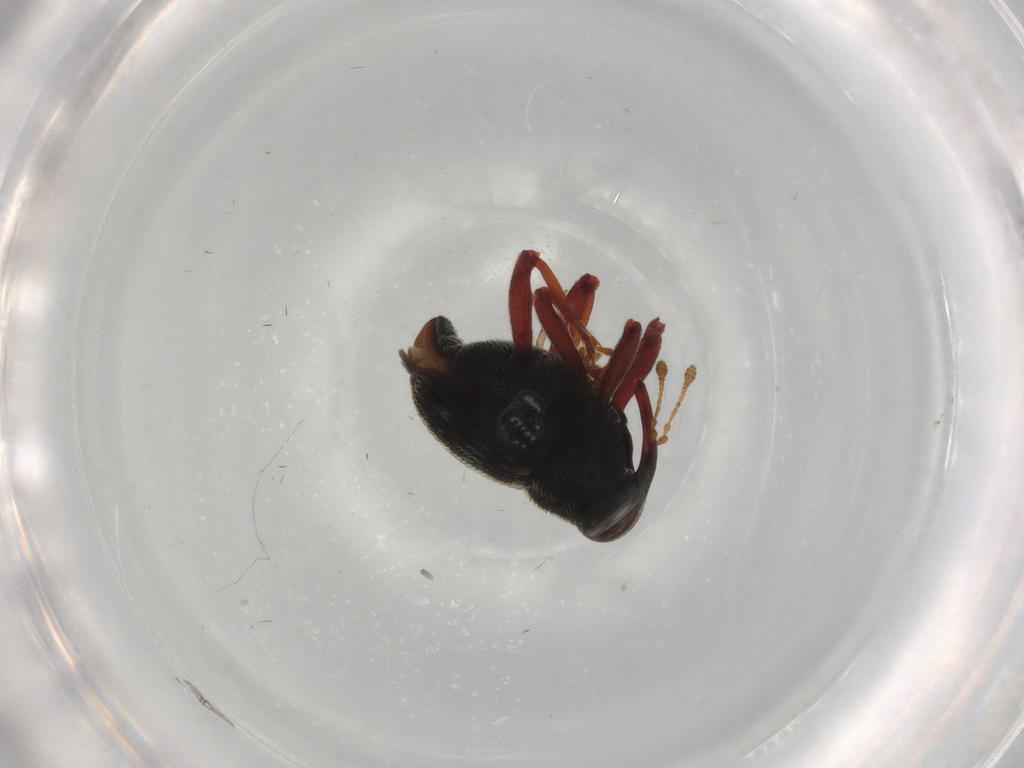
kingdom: Animalia
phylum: Arthropoda
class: Insecta
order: Coleoptera
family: Curculionidae
